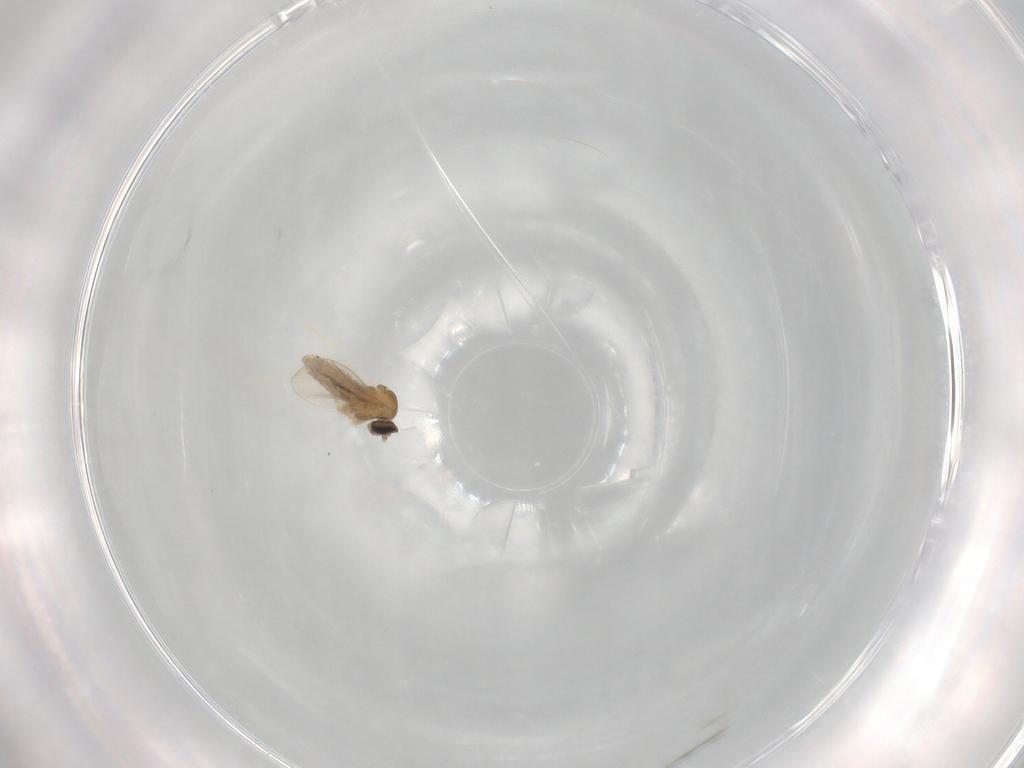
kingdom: Animalia
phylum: Arthropoda
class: Insecta
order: Diptera
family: Cecidomyiidae
